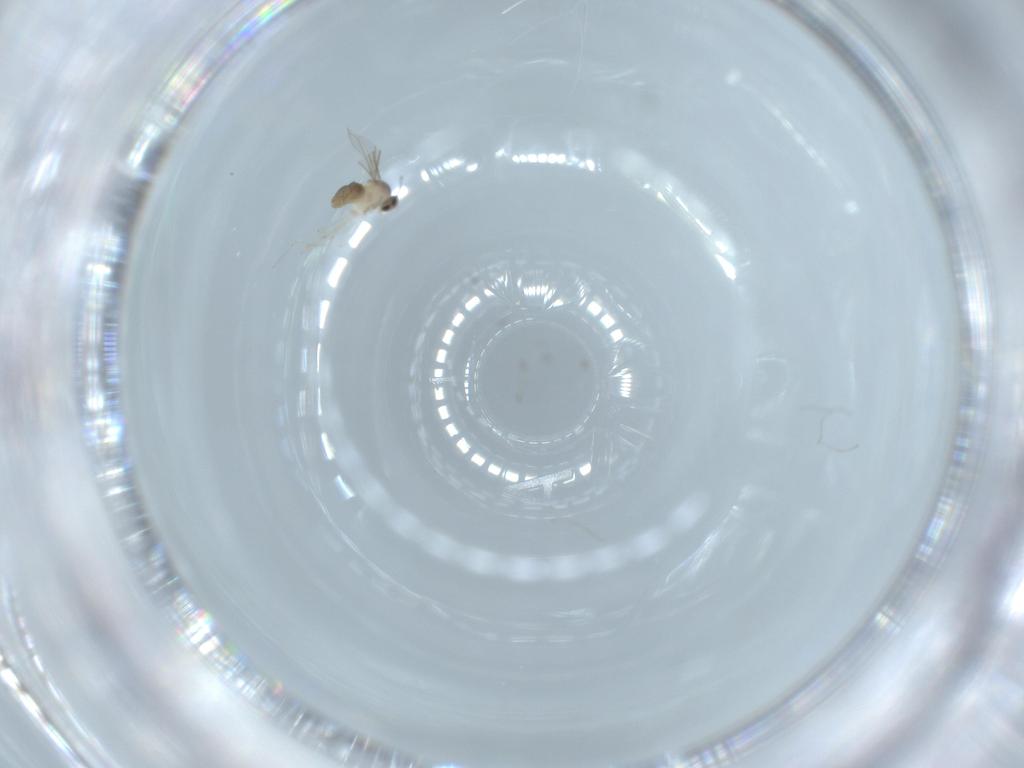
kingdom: Animalia
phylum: Arthropoda
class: Insecta
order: Diptera
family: Cecidomyiidae
